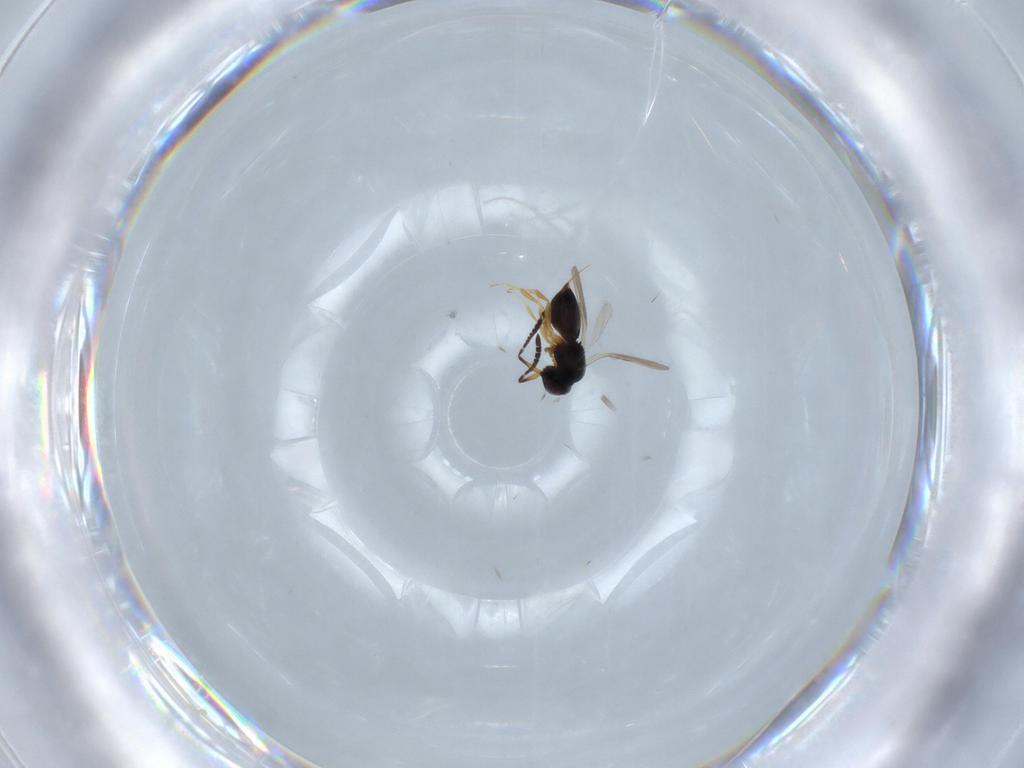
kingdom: Animalia
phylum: Arthropoda
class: Insecta
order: Hymenoptera
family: Ceraphronidae
